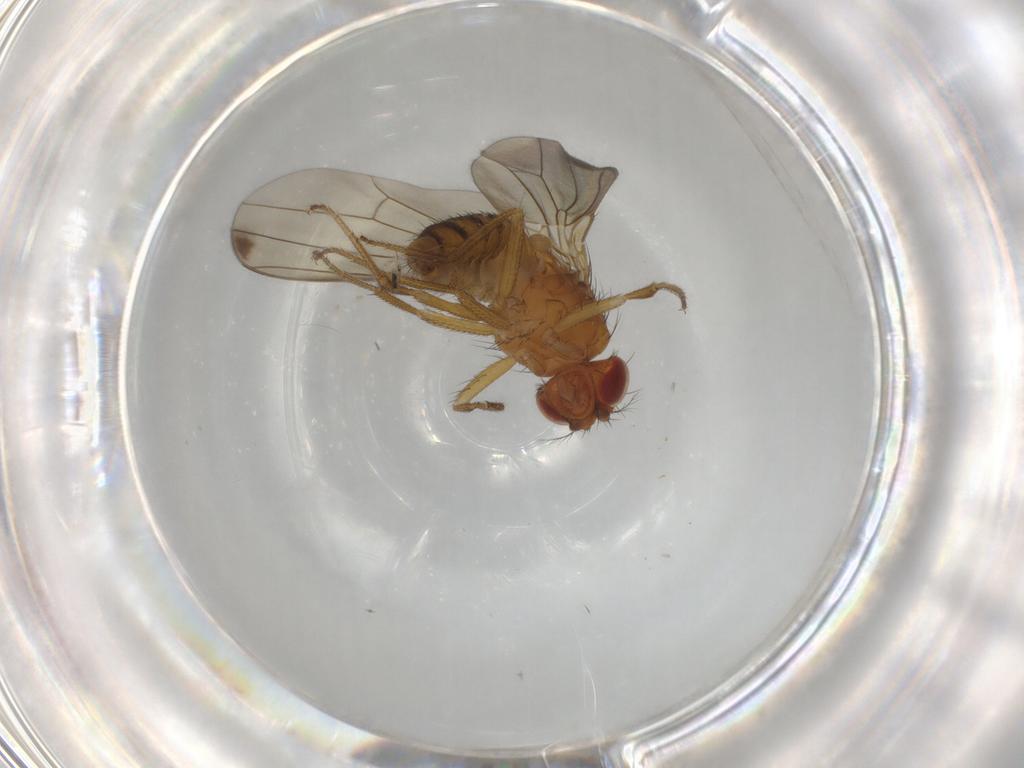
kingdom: Animalia
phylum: Arthropoda
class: Insecta
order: Diptera
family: Drosophilidae
